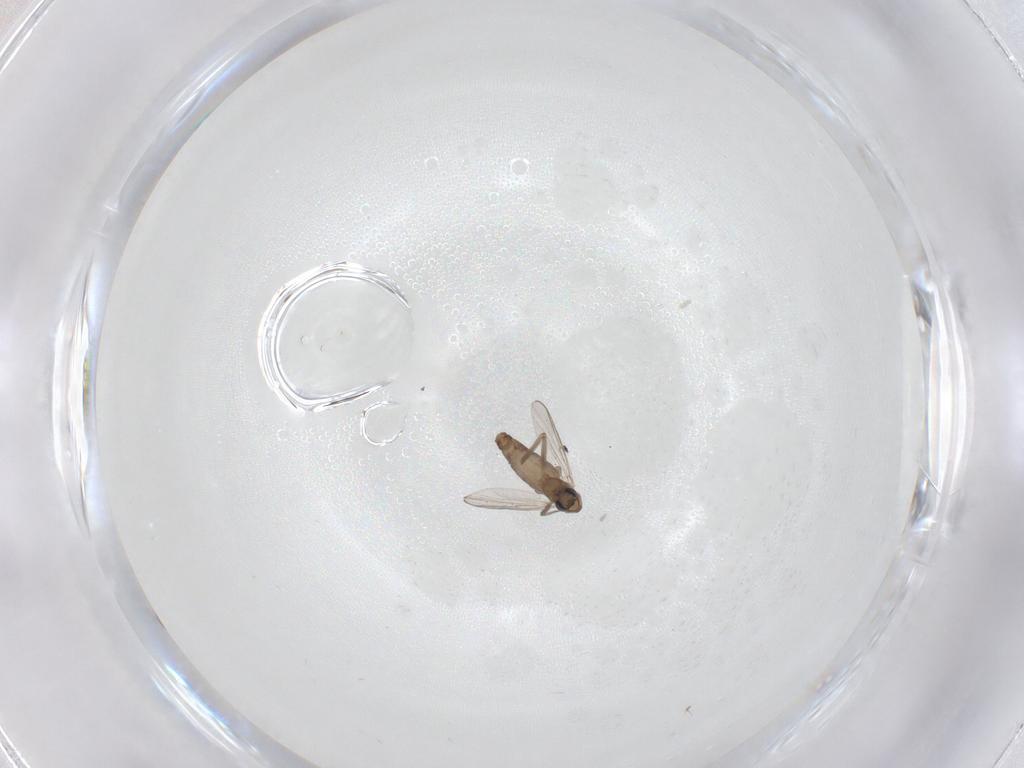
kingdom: Animalia
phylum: Arthropoda
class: Insecta
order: Diptera
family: Chironomidae
